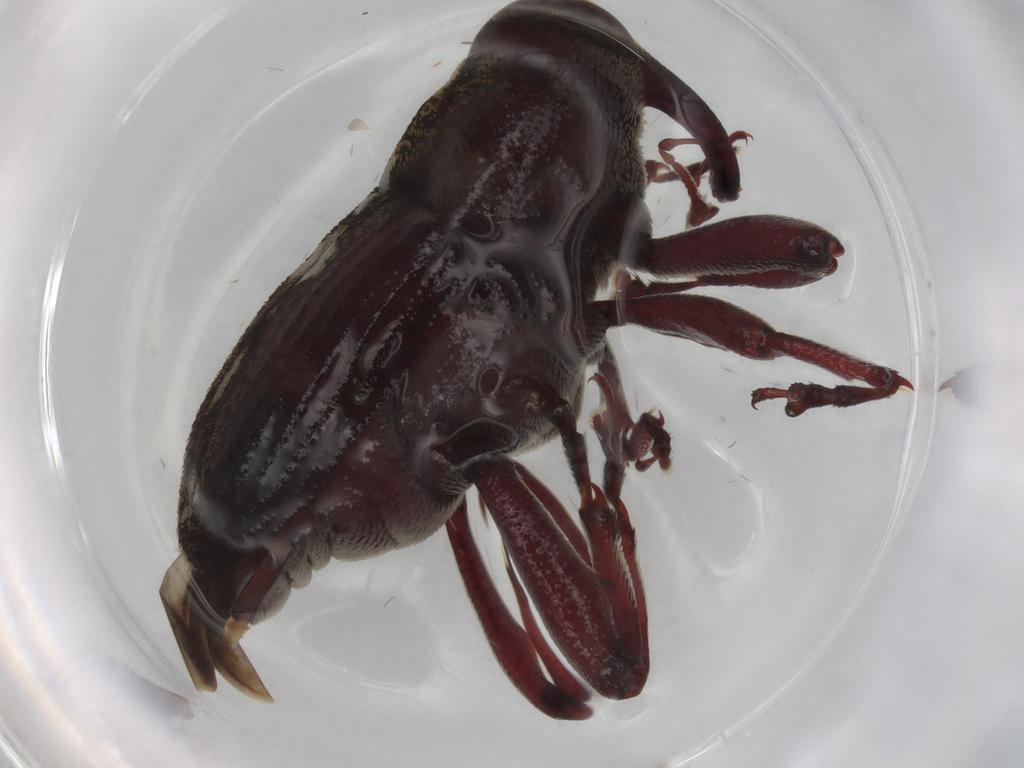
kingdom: Animalia
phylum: Arthropoda
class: Insecta
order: Coleoptera
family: Curculionidae
